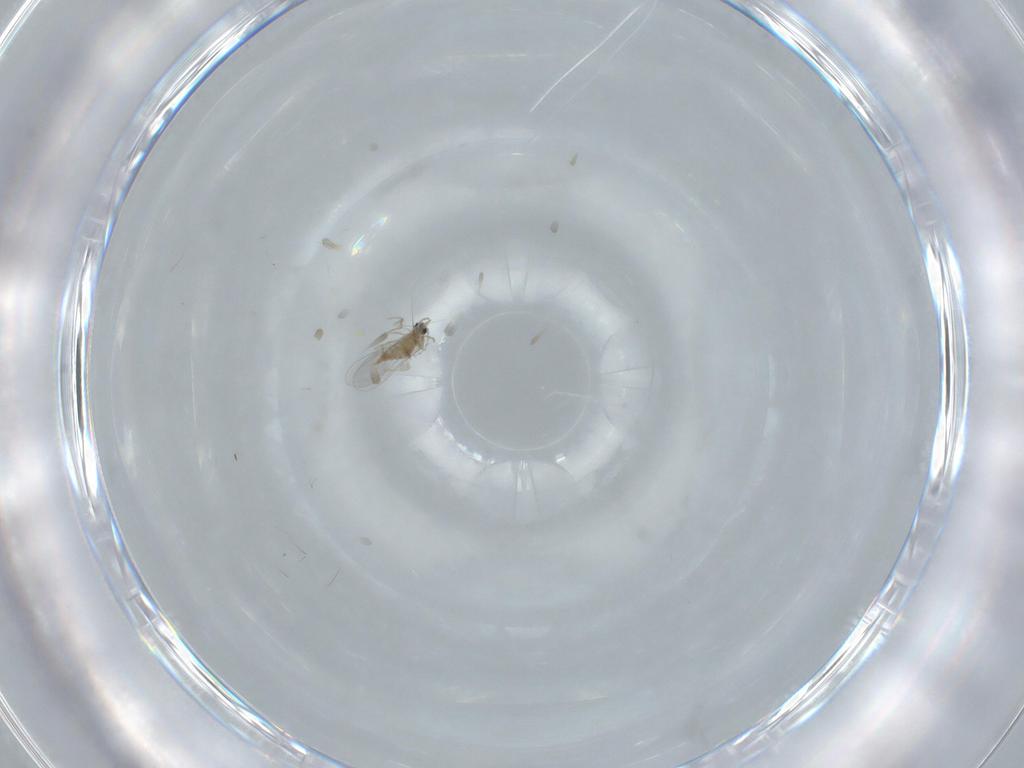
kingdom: Animalia
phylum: Arthropoda
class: Insecta
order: Diptera
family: Cecidomyiidae
